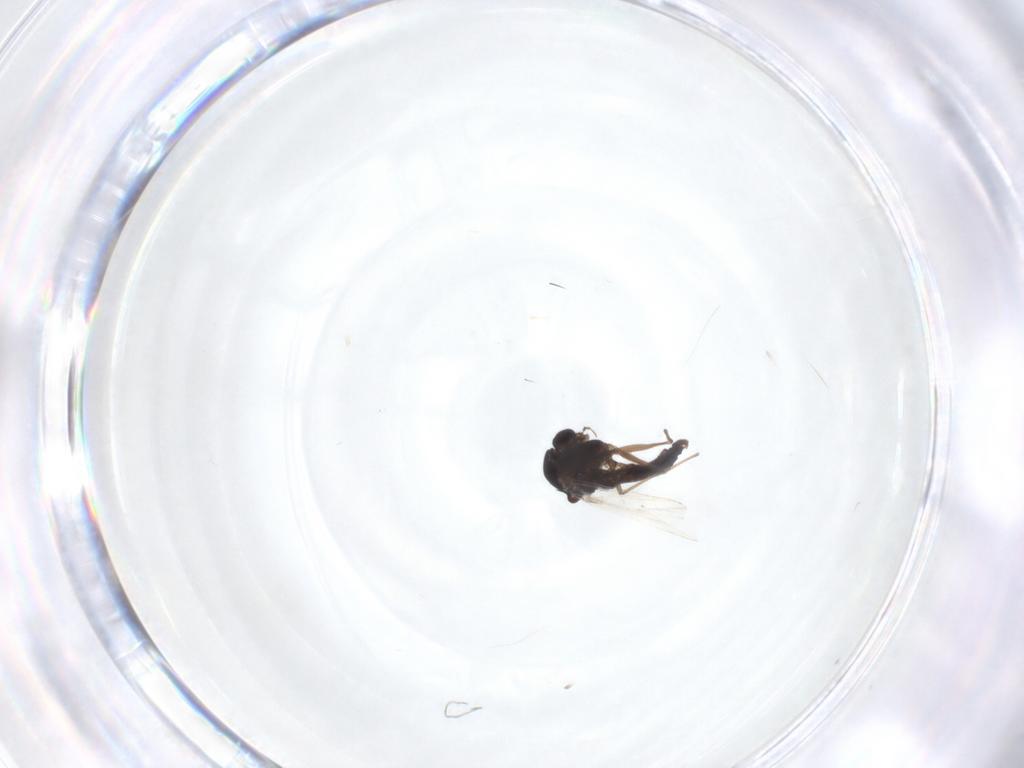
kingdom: Animalia
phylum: Arthropoda
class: Insecta
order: Diptera
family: Chironomidae
